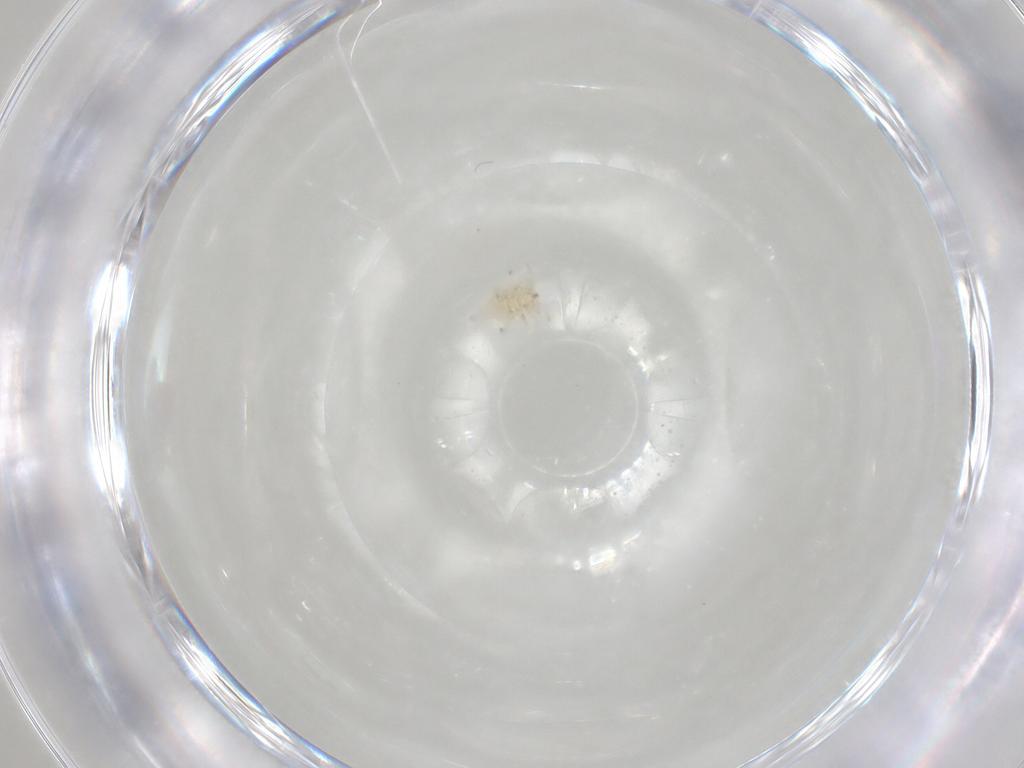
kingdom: Animalia
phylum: Arthropoda
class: Insecta
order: Neuroptera
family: Coniopterygidae
